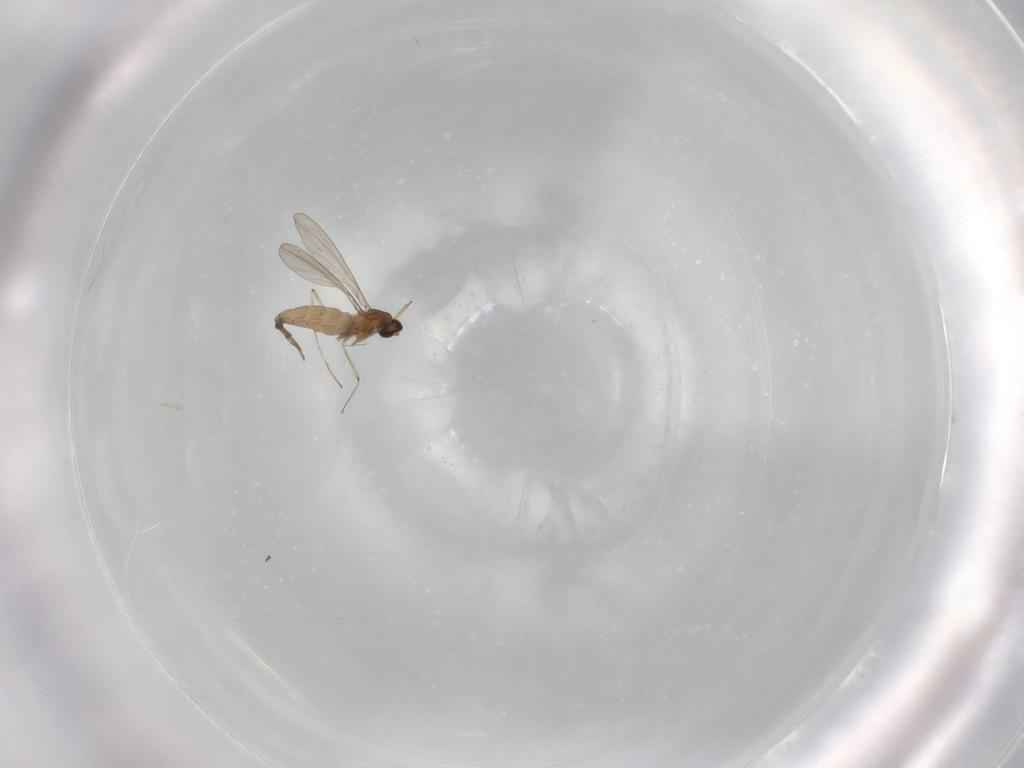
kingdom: Animalia
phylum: Arthropoda
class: Insecta
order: Diptera
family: Cecidomyiidae
